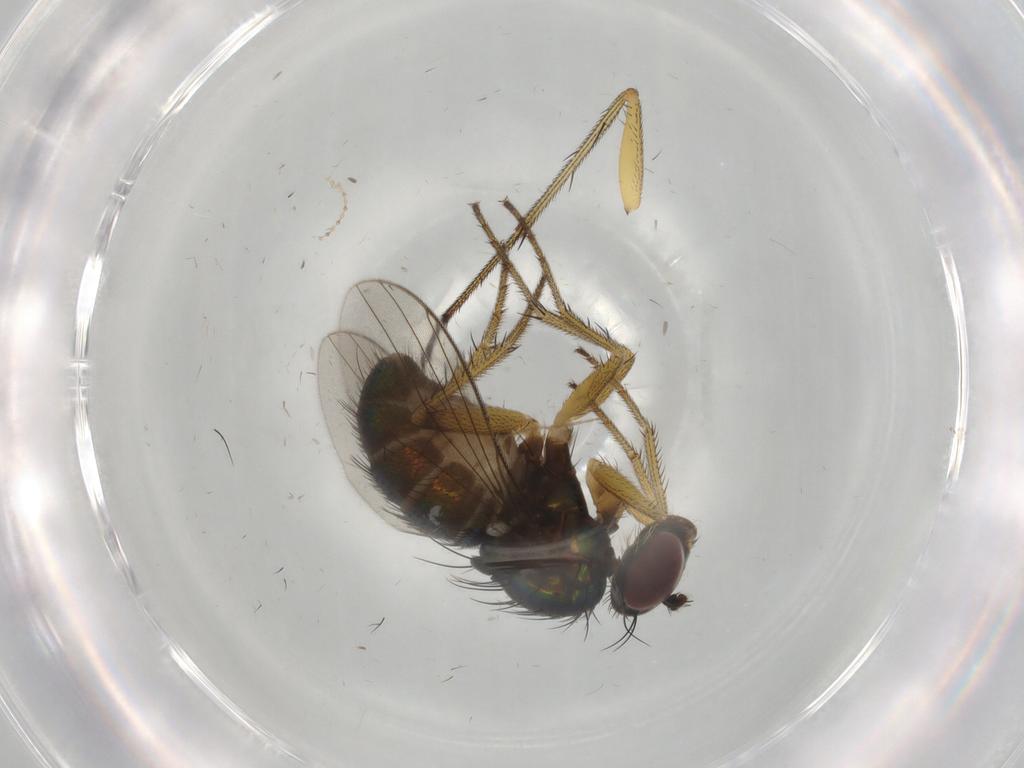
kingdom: Animalia
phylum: Arthropoda
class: Insecta
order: Diptera
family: Dolichopodidae
